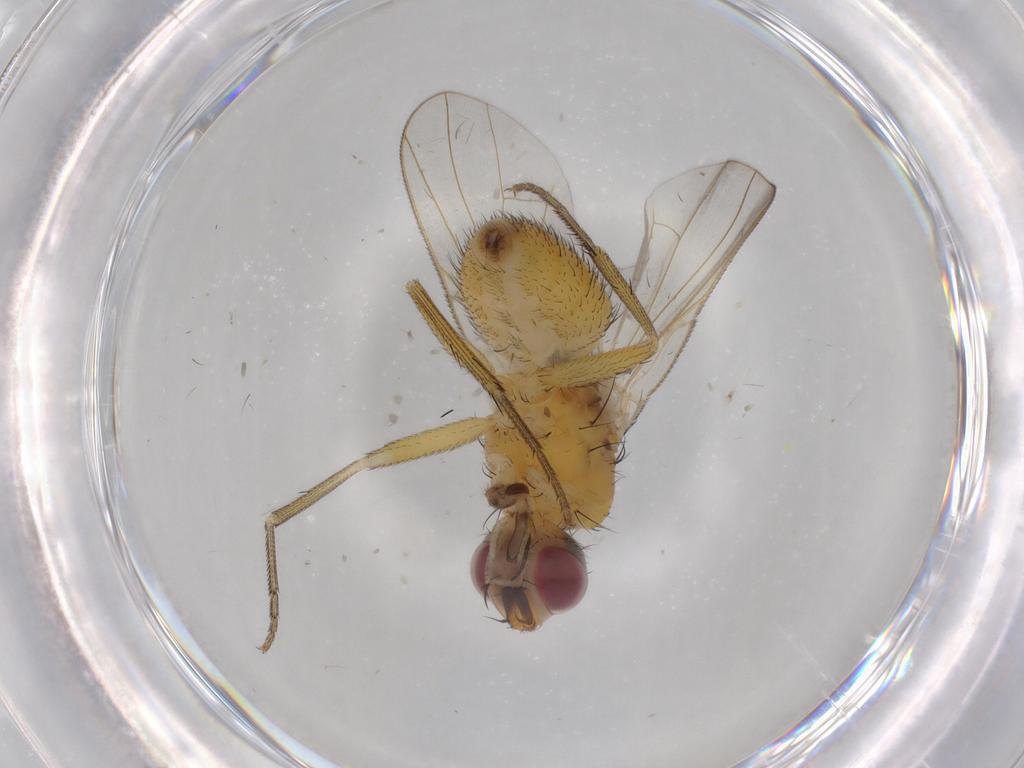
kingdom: Animalia
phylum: Arthropoda
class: Insecta
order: Diptera
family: Muscidae
